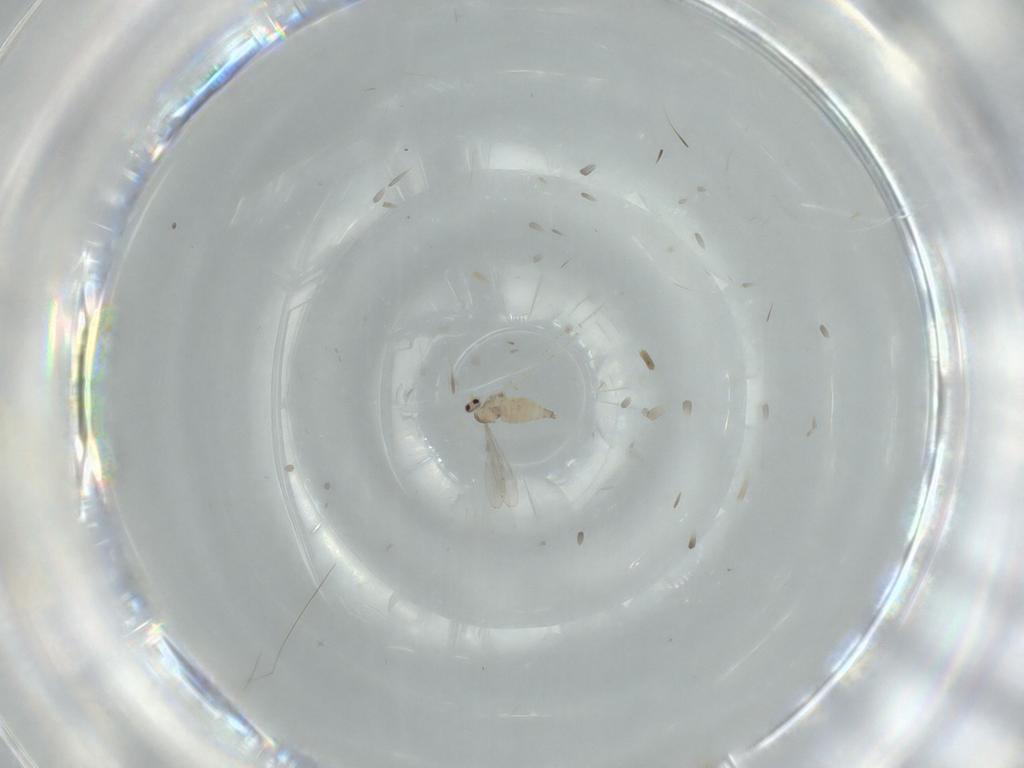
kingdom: Animalia
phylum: Arthropoda
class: Insecta
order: Diptera
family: Cecidomyiidae
